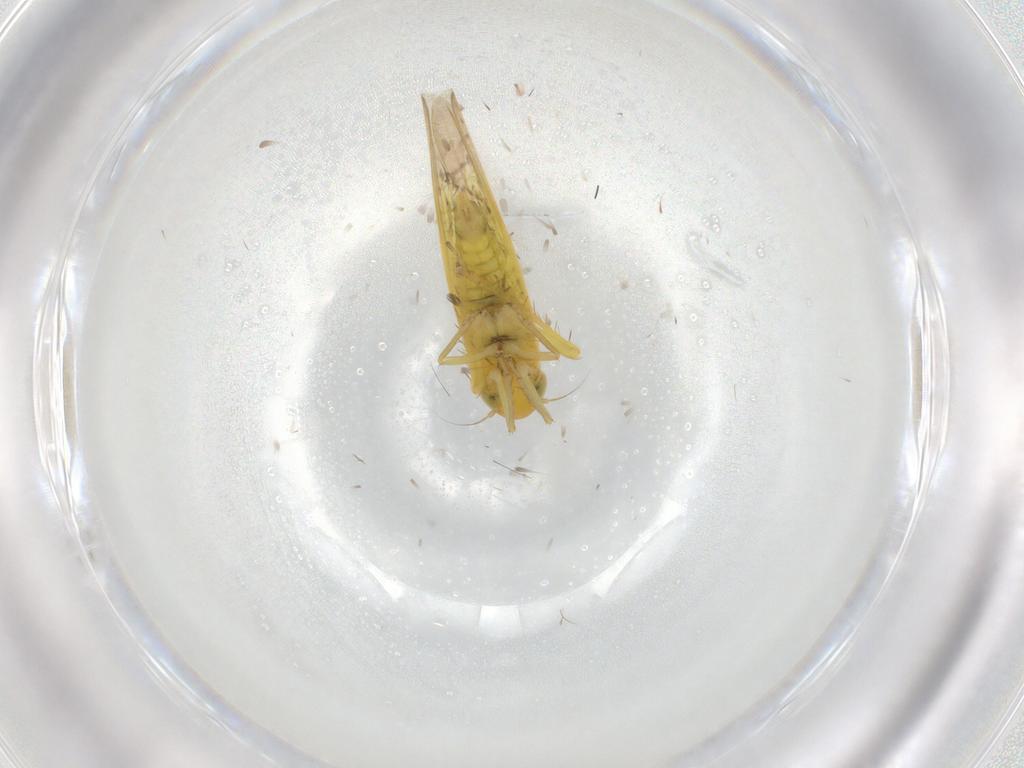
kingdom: Animalia
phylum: Arthropoda
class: Insecta
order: Hemiptera
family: Cicadellidae
